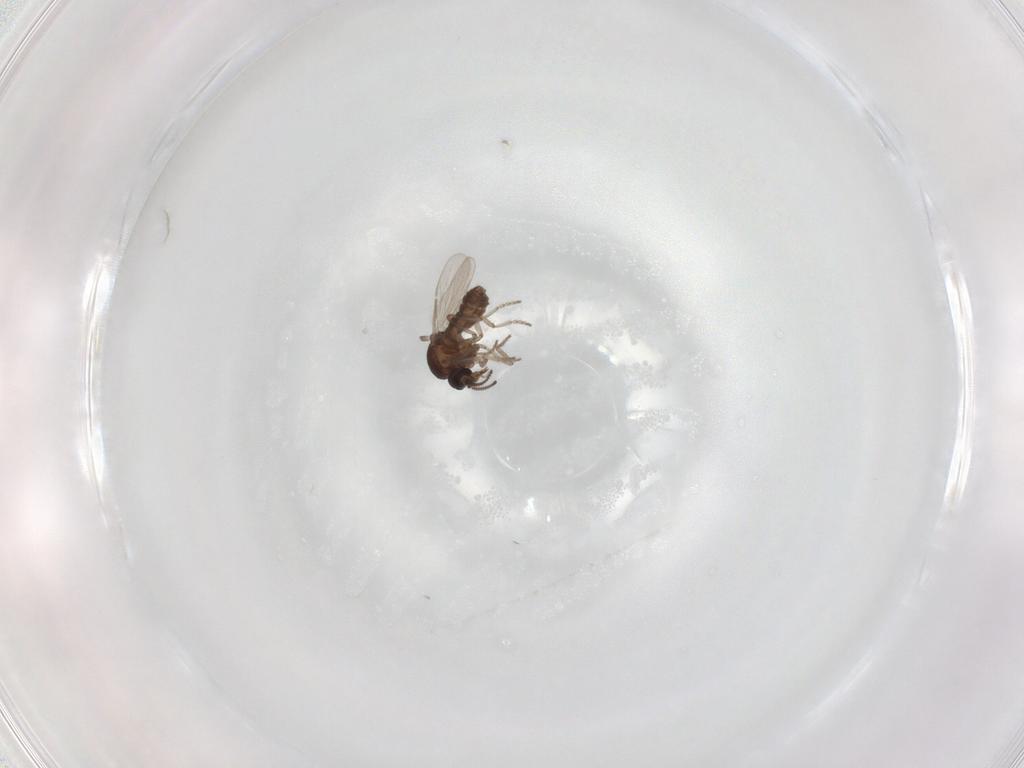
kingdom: Animalia
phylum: Arthropoda
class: Insecta
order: Diptera
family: Ceratopogonidae
